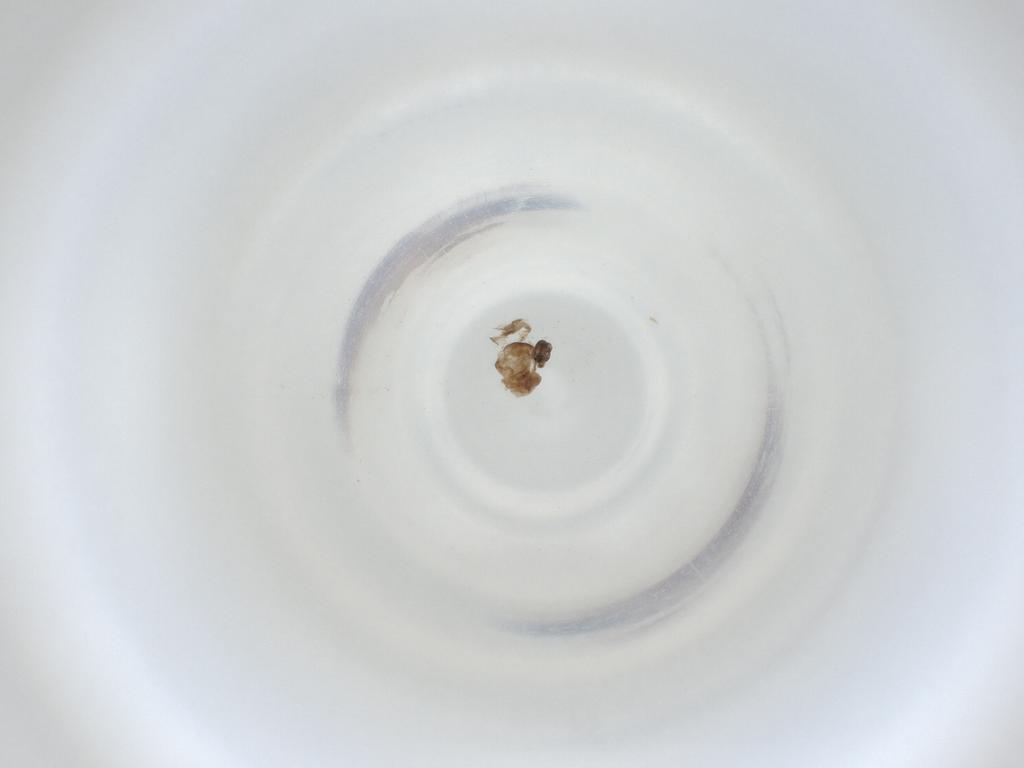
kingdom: Animalia
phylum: Arthropoda
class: Insecta
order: Diptera
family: Cecidomyiidae
